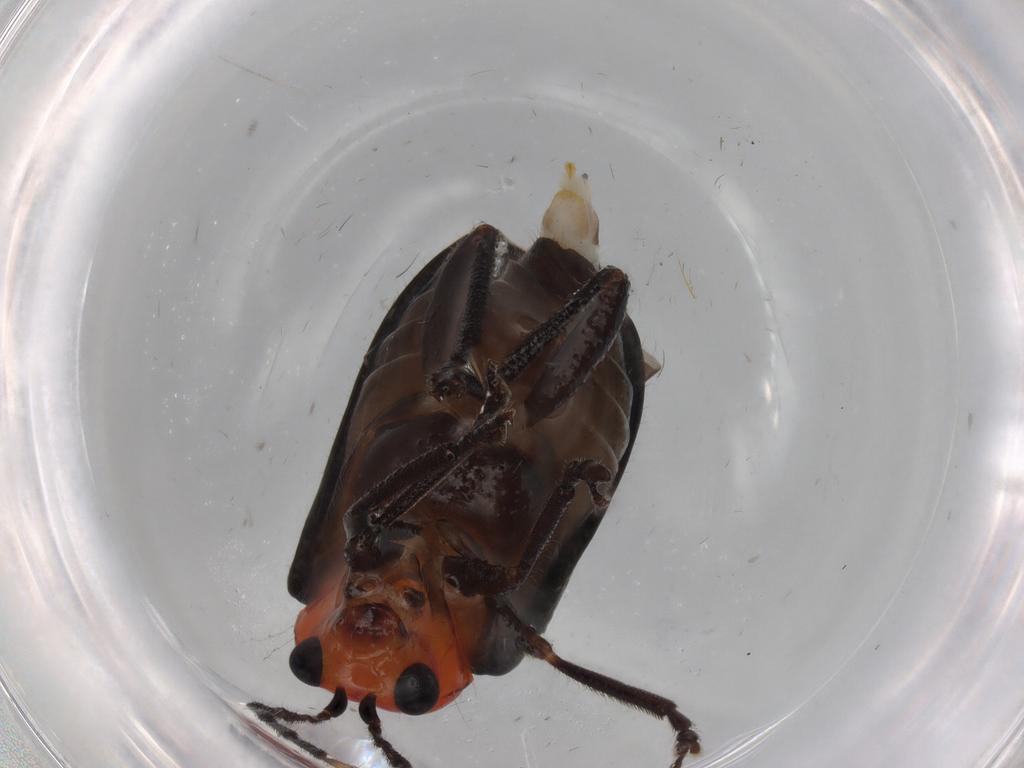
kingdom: Animalia
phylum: Arthropoda
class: Insecta
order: Coleoptera
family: Chrysomelidae
